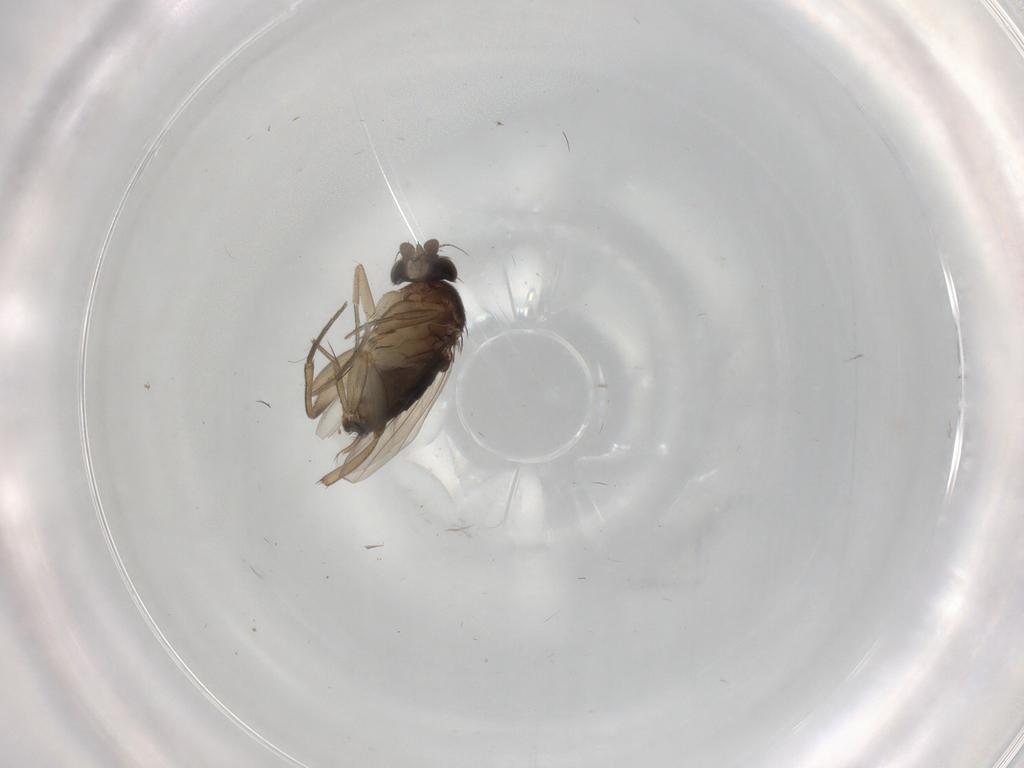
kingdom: Animalia
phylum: Arthropoda
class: Insecta
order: Diptera
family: Phoridae
